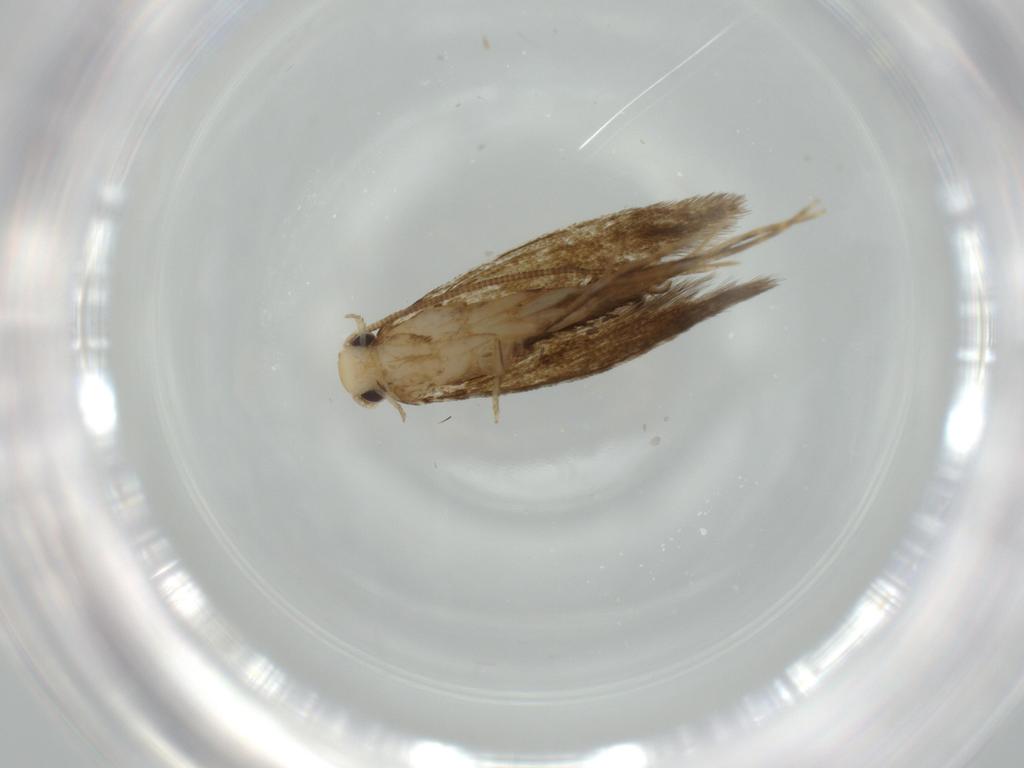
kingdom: Animalia
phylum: Arthropoda
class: Insecta
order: Lepidoptera
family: Tineidae
